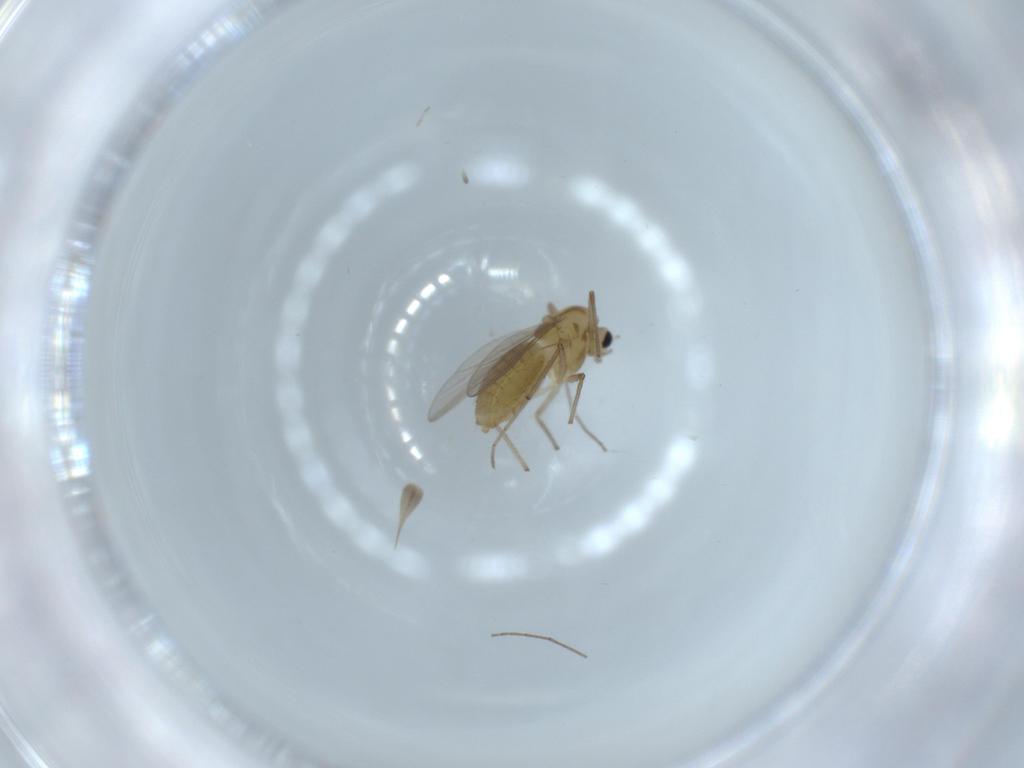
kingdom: Animalia
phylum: Arthropoda
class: Insecta
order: Diptera
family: Chironomidae
